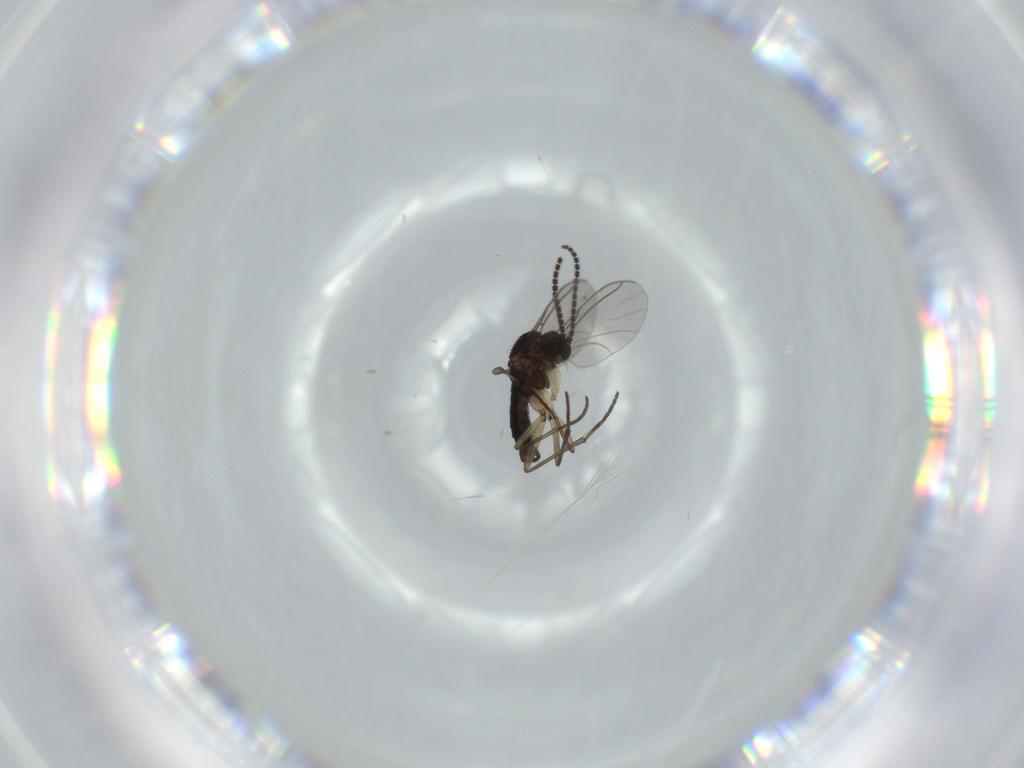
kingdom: Animalia
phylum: Arthropoda
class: Insecta
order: Diptera
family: Sciaridae
